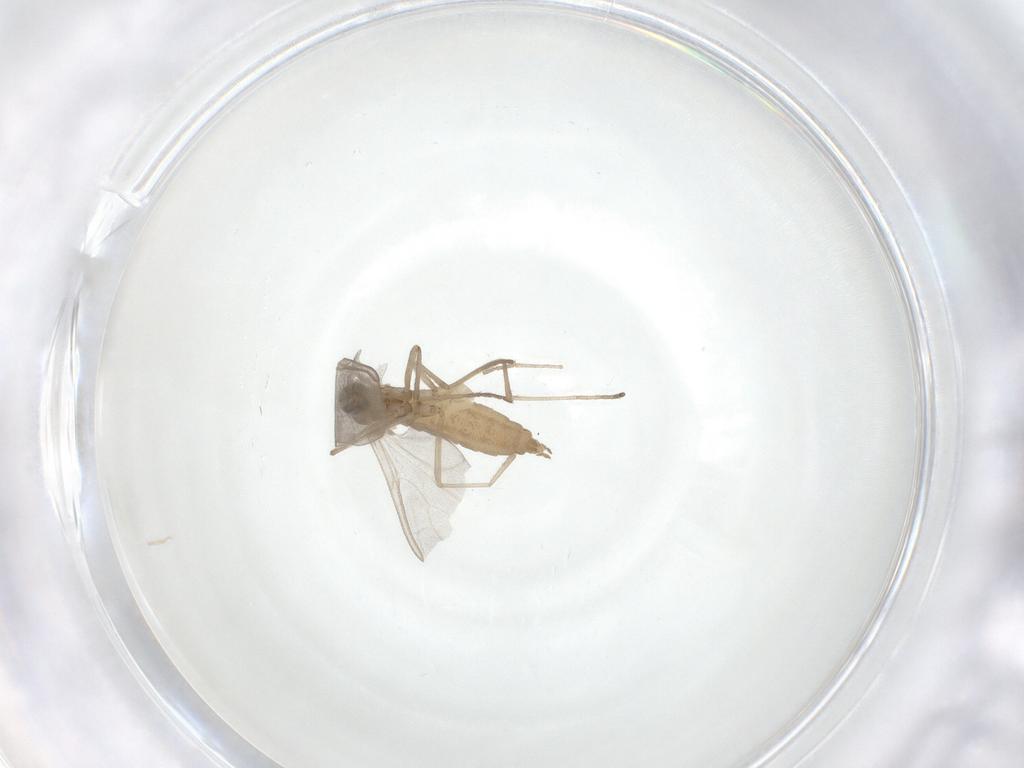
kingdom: Animalia
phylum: Arthropoda
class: Insecta
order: Diptera
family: Cecidomyiidae
